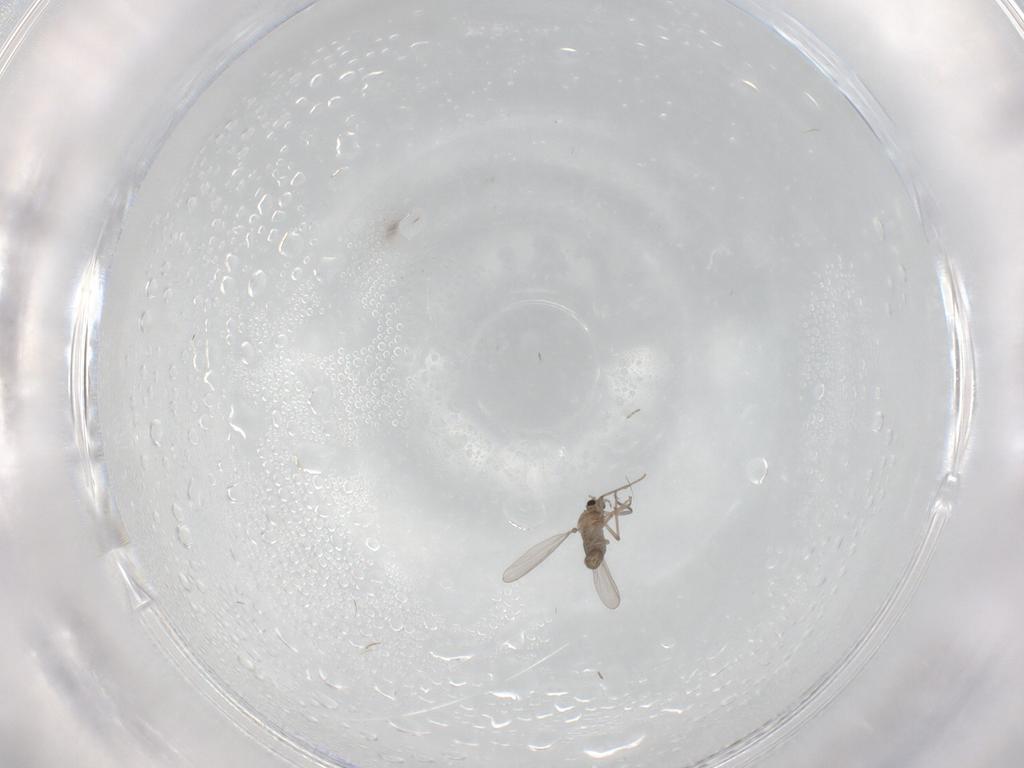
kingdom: Animalia
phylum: Arthropoda
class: Insecta
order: Diptera
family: Chironomidae
